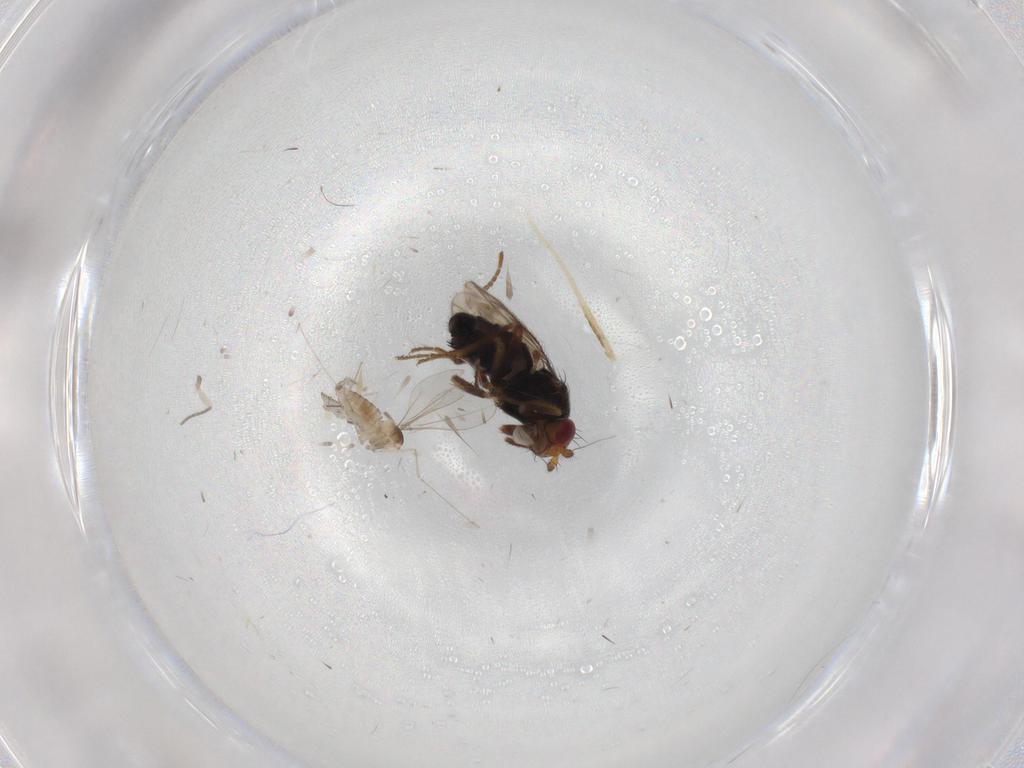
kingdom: Animalia
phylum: Arthropoda
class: Insecta
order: Diptera
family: Sphaeroceridae
